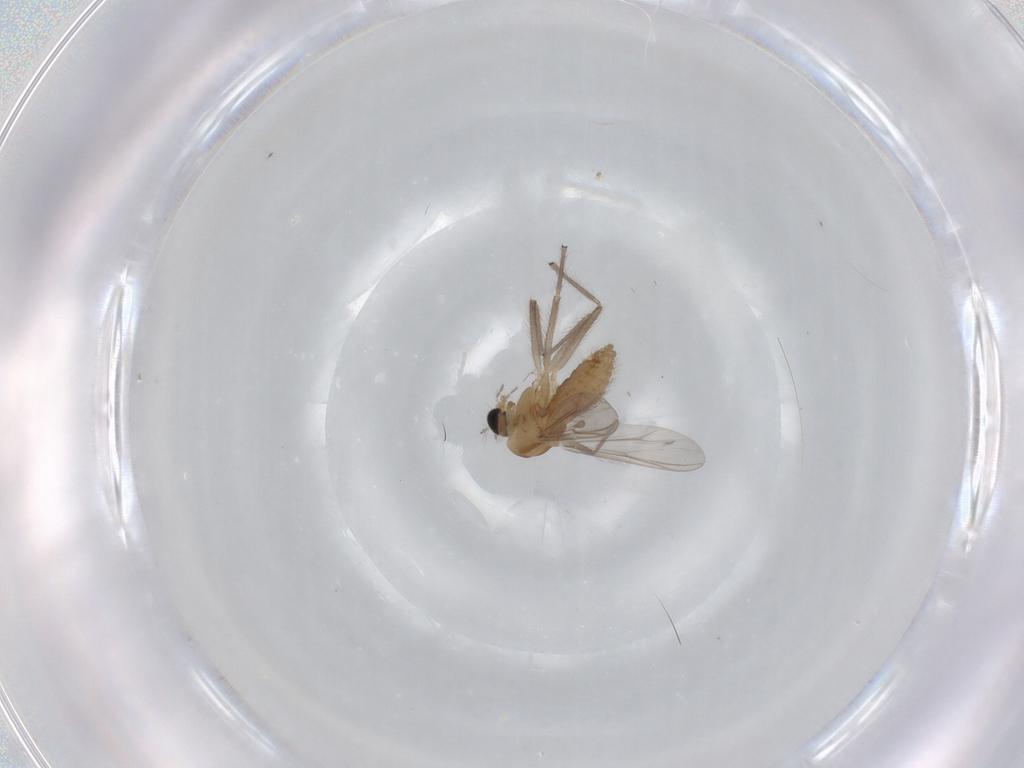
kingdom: Animalia
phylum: Arthropoda
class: Insecta
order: Diptera
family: Chironomidae
